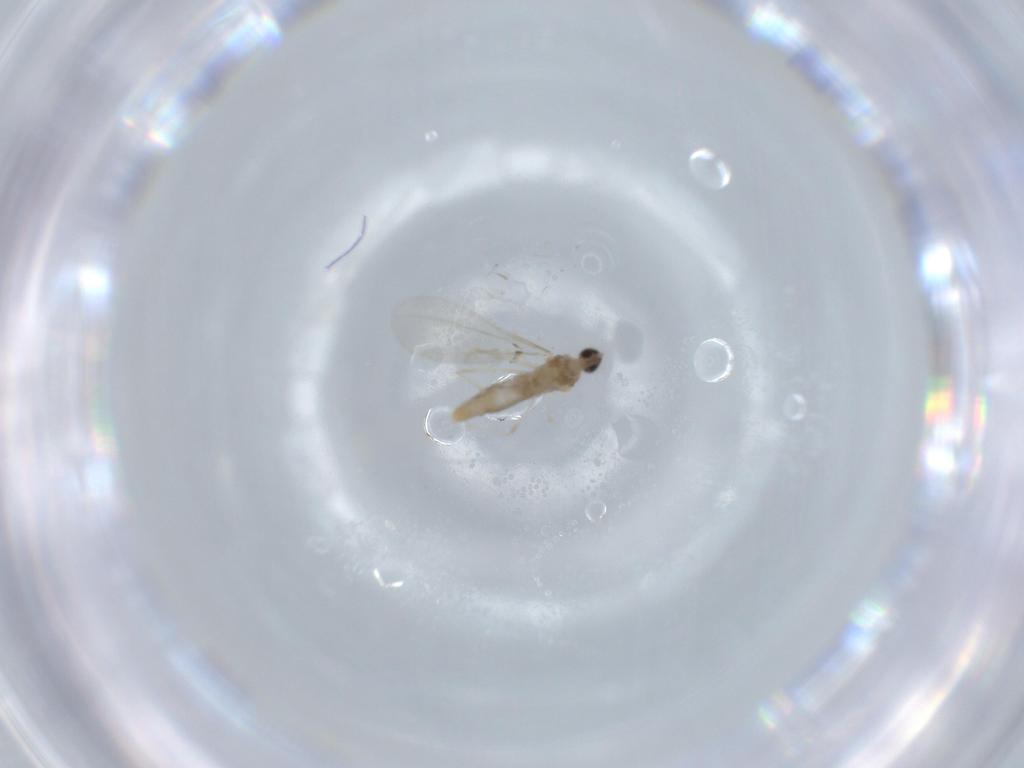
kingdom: Animalia
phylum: Arthropoda
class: Insecta
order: Diptera
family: Cecidomyiidae
